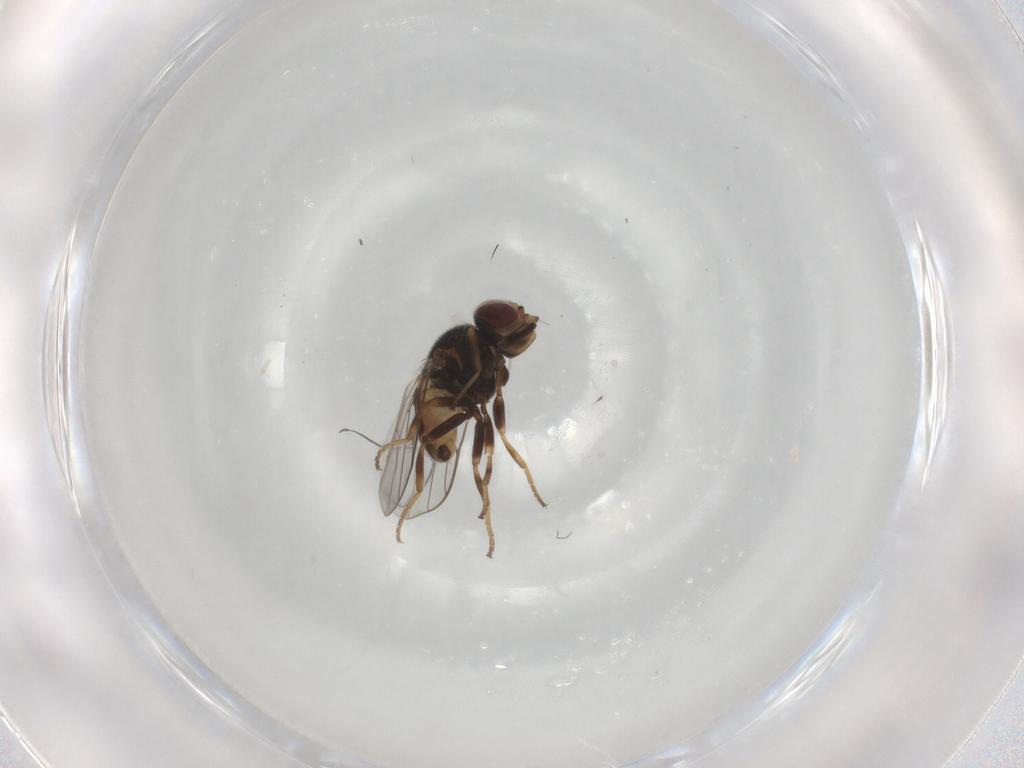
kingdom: Animalia
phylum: Arthropoda
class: Insecta
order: Diptera
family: Chloropidae
